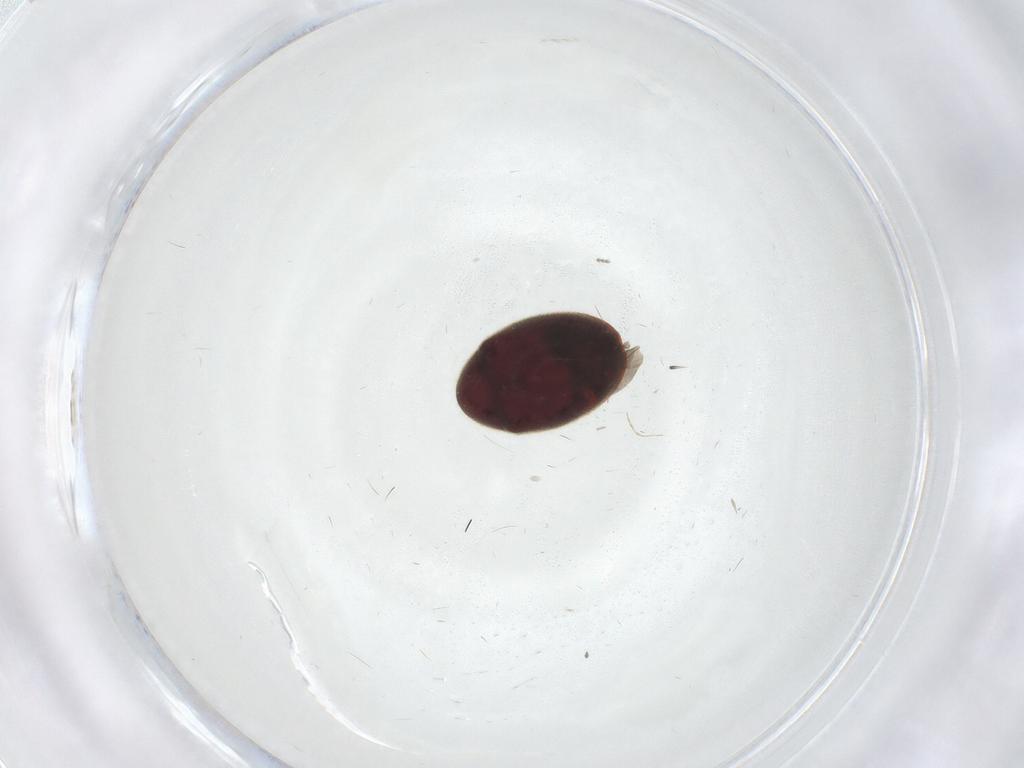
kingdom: Animalia
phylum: Arthropoda
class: Insecta
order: Coleoptera
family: Ptinidae
